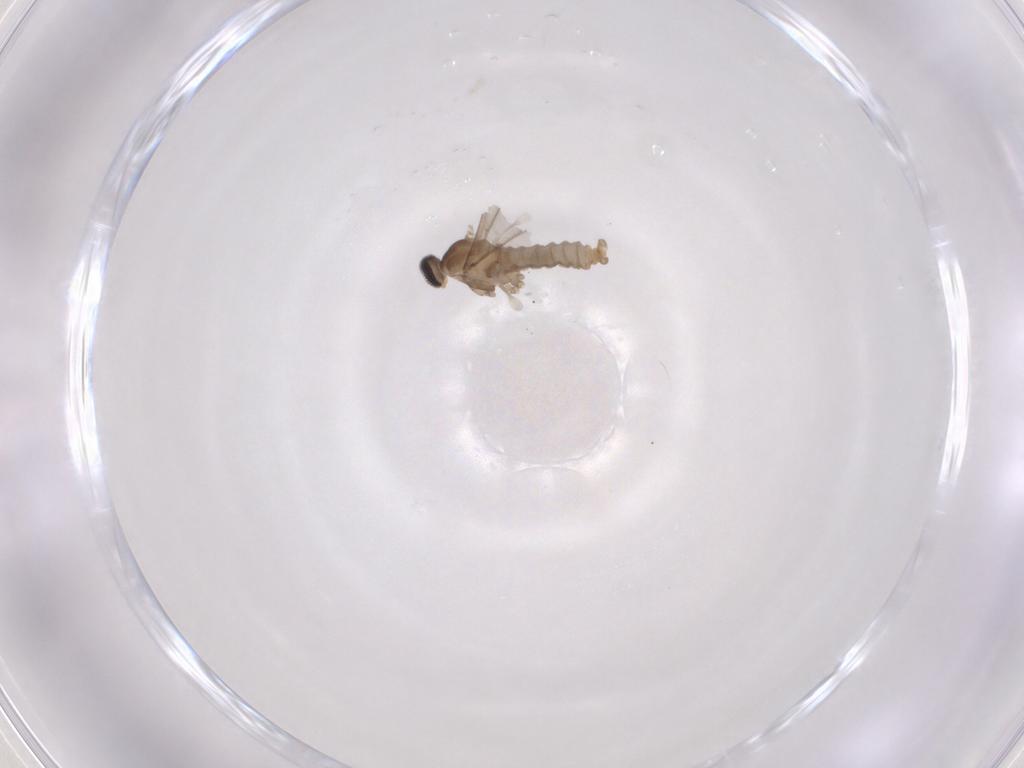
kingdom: Animalia
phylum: Arthropoda
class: Insecta
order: Diptera
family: Cecidomyiidae
